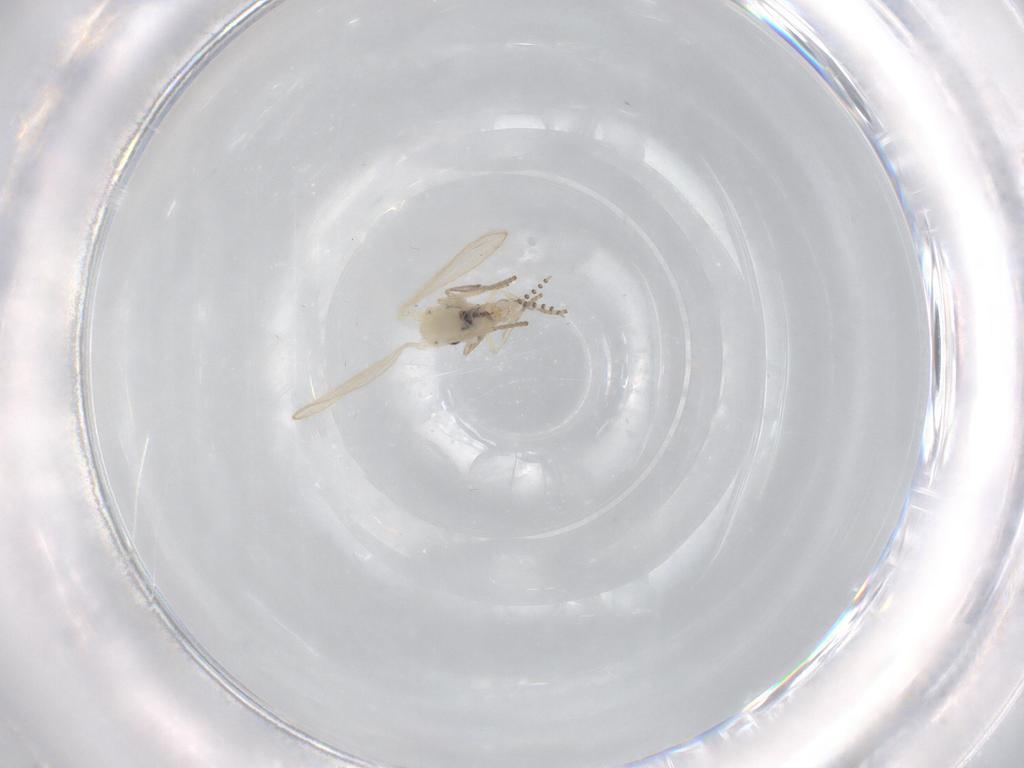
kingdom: Animalia
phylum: Arthropoda
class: Insecta
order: Diptera
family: Psychodidae
